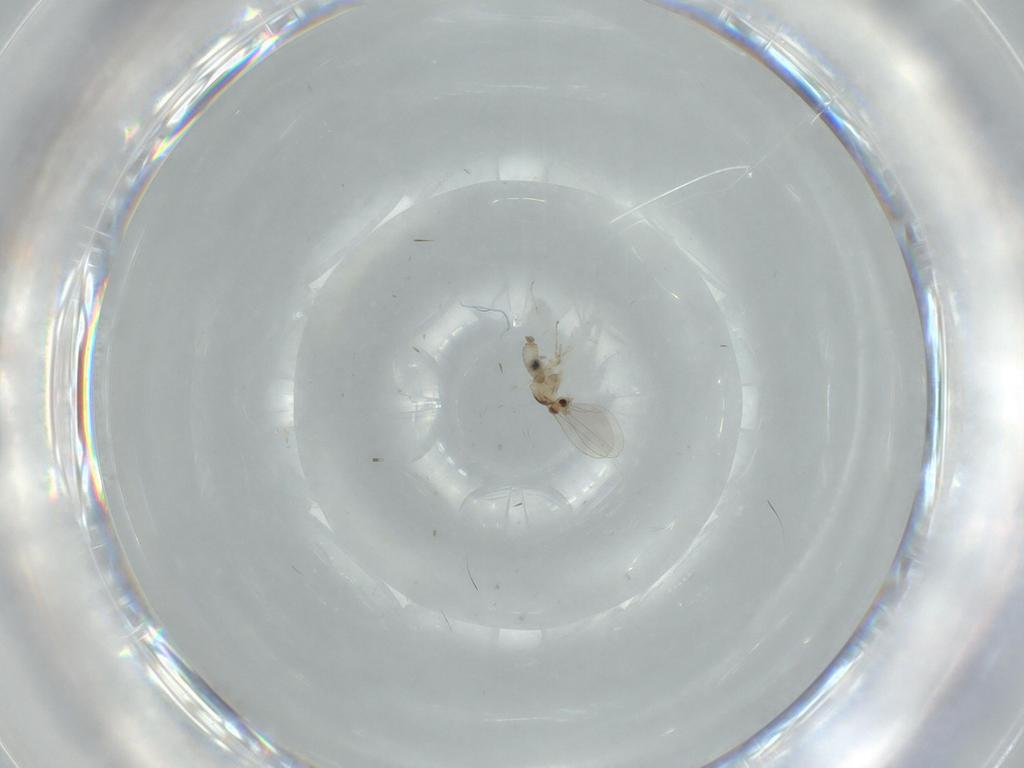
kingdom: Animalia
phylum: Arthropoda
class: Insecta
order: Diptera
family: Cecidomyiidae
